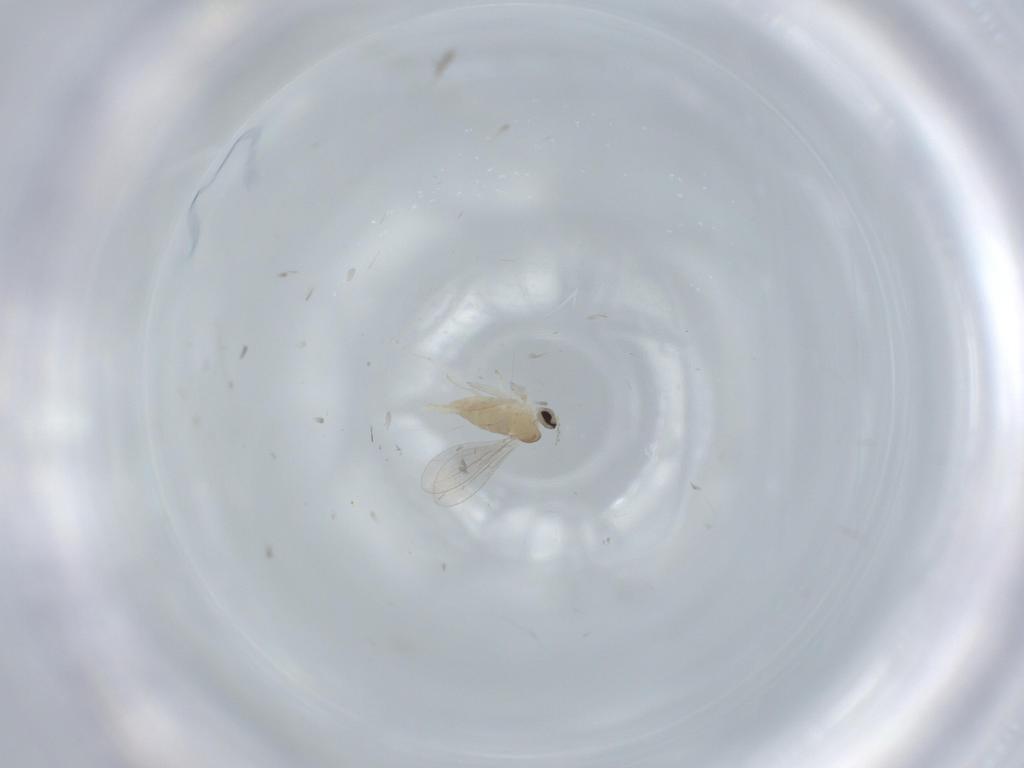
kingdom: Animalia
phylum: Arthropoda
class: Insecta
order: Diptera
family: Cecidomyiidae
